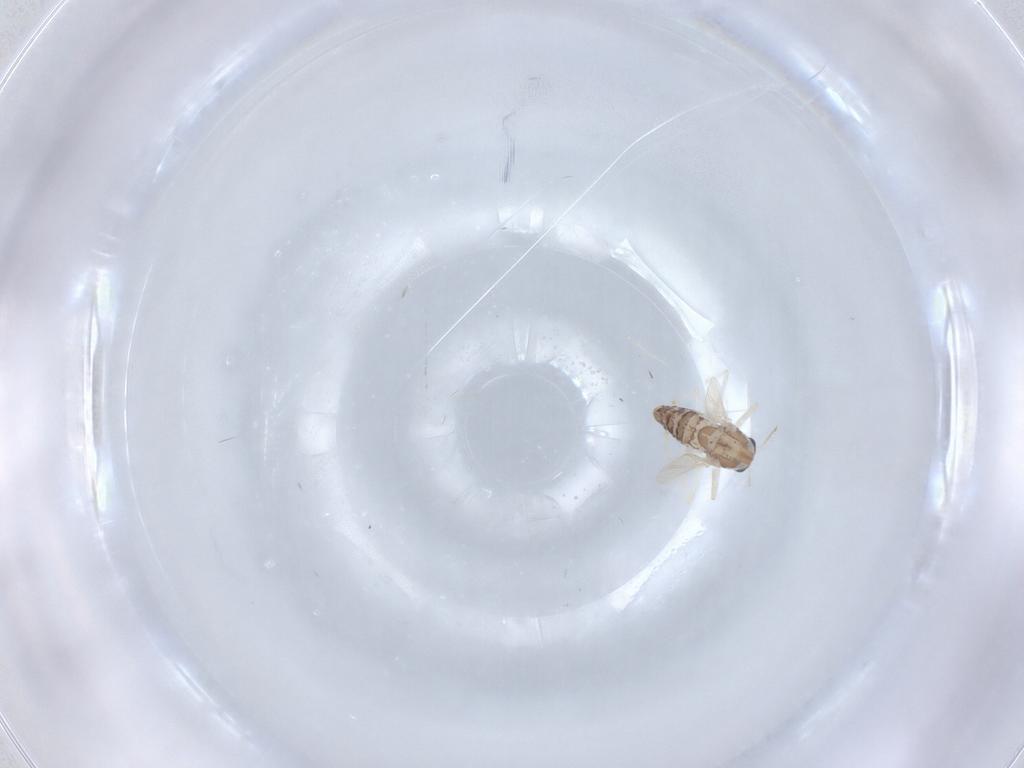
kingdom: Animalia
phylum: Arthropoda
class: Insecta
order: Diptera
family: Chironomidae
